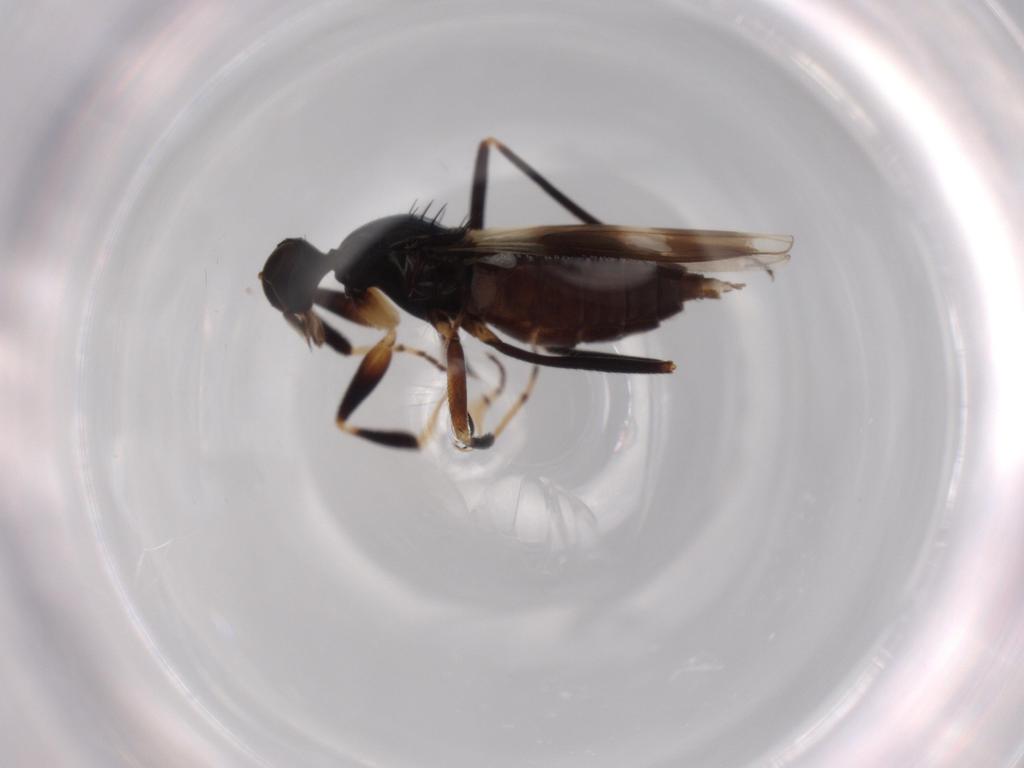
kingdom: Animalia
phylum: Arthropoda
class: Insecta
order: Diptera
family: Hybotidae
